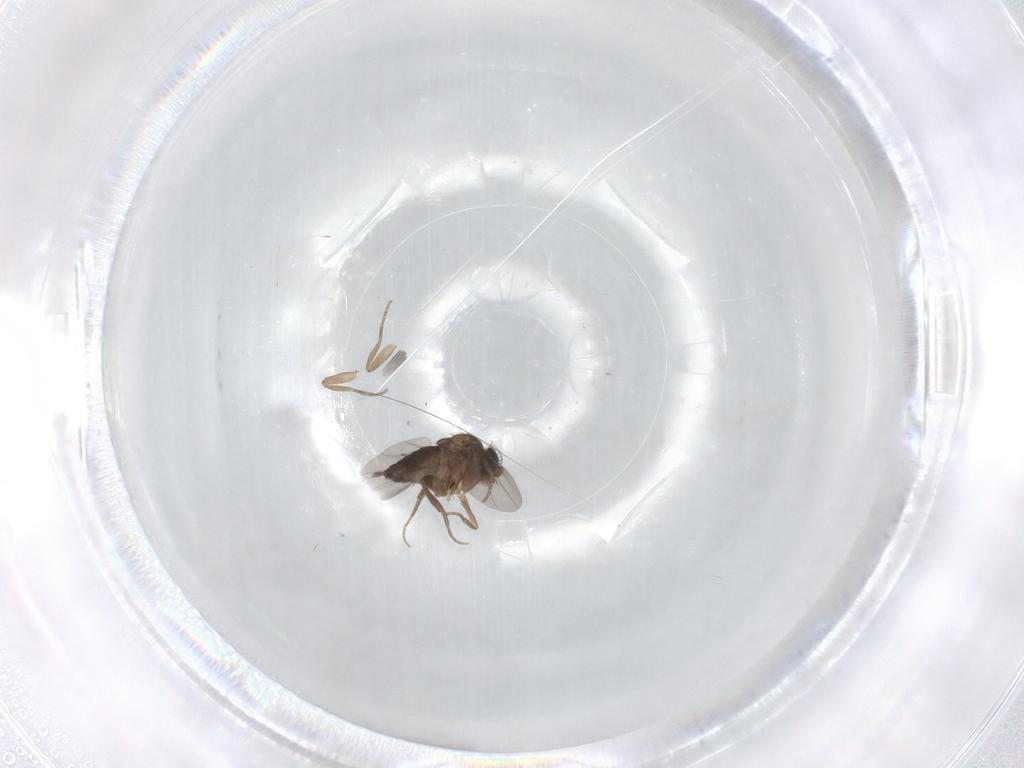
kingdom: Animalia
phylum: Arthropoda
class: Insecta
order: Diptera
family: Phoridae
